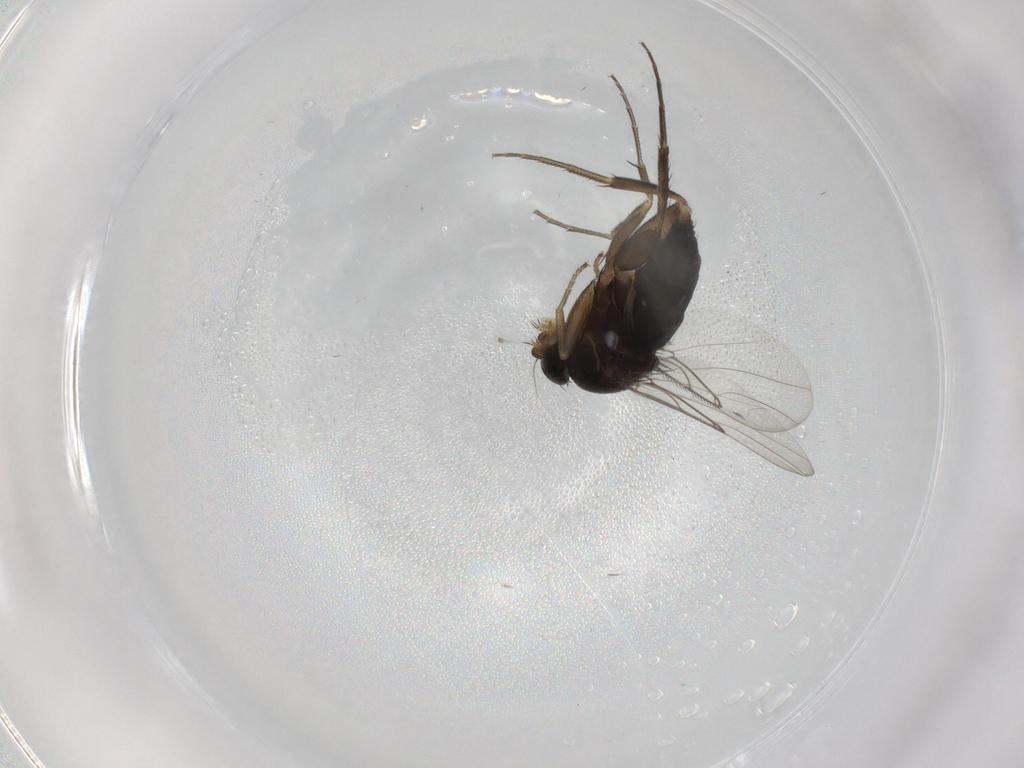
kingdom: Animalia
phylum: Arthropoda
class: Insecta
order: Diptera
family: Phoridae
